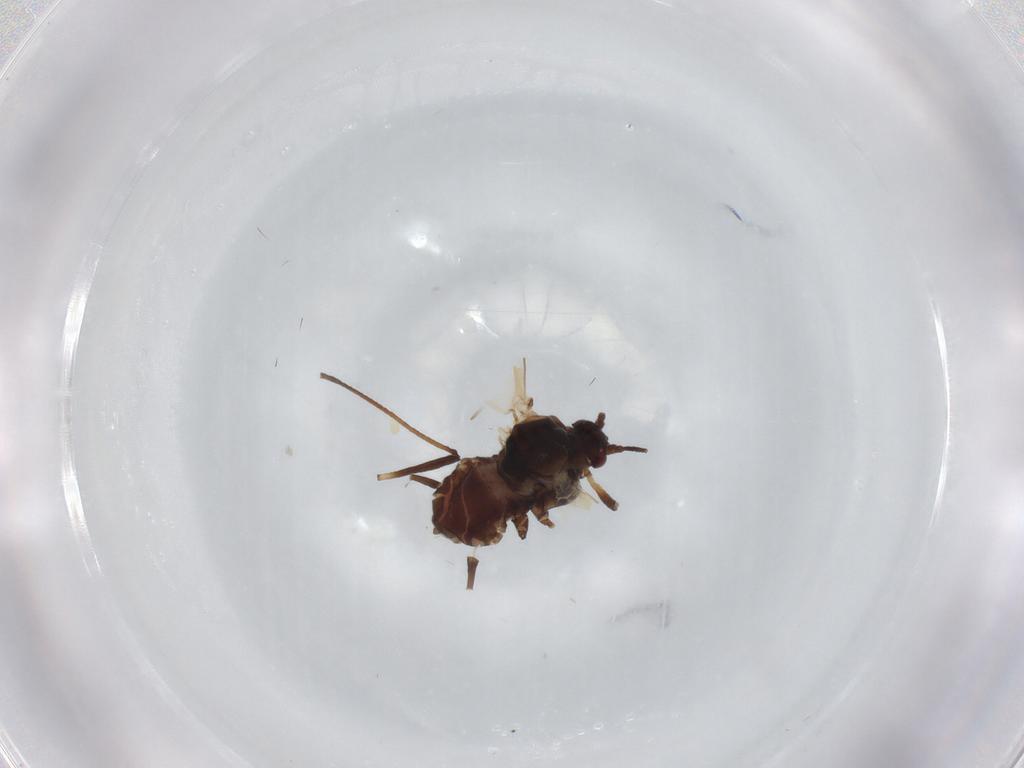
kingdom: Animalia
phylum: Arthropoda
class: Insecta
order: Hemiptera
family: Aphididae
